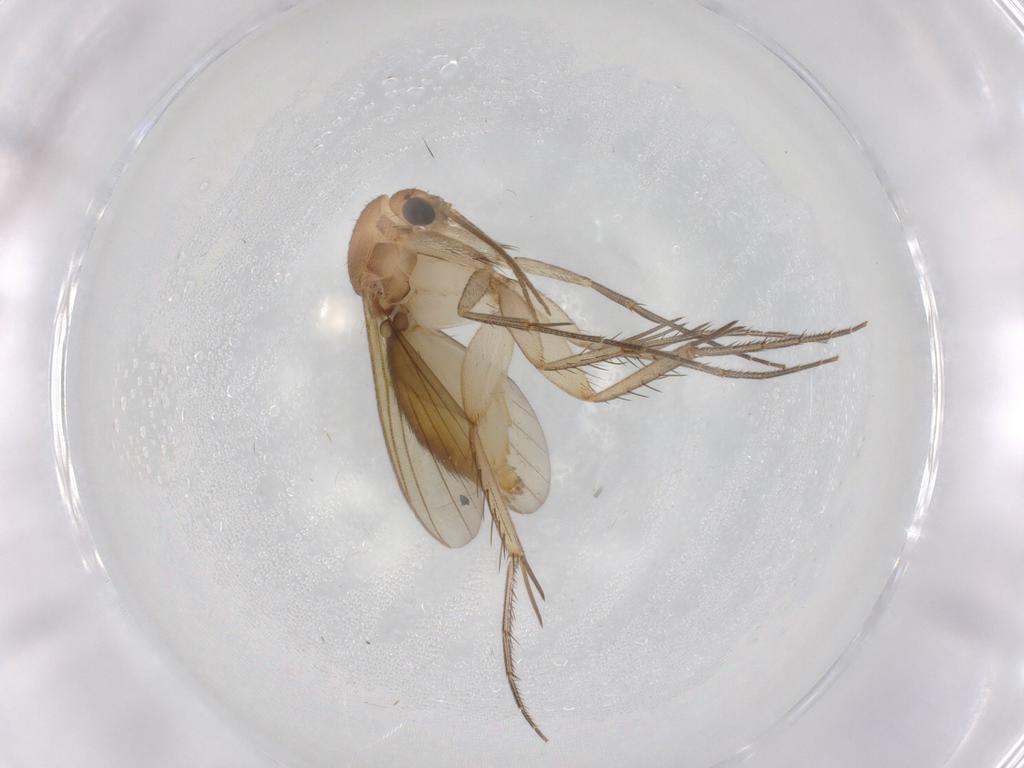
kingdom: Animalia
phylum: Arthropoda
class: Insecta
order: Diptera
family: Mycetophilidae
